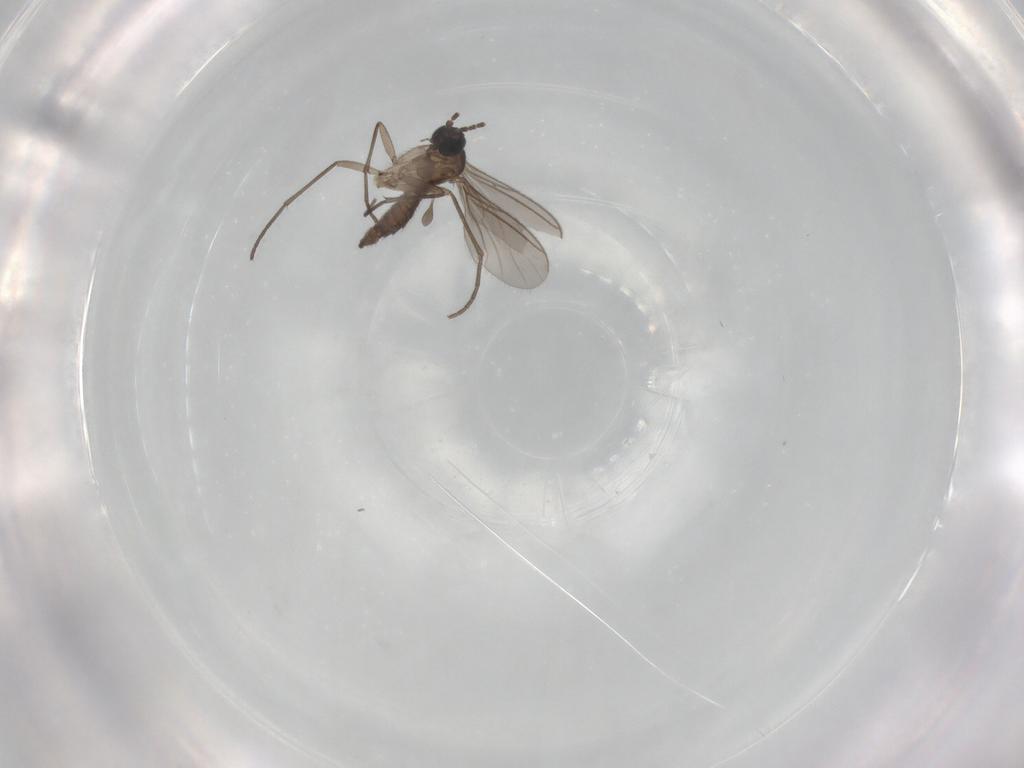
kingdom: Animalia
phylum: Arthropoda
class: Insecta
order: Diptera
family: Sciaridae
